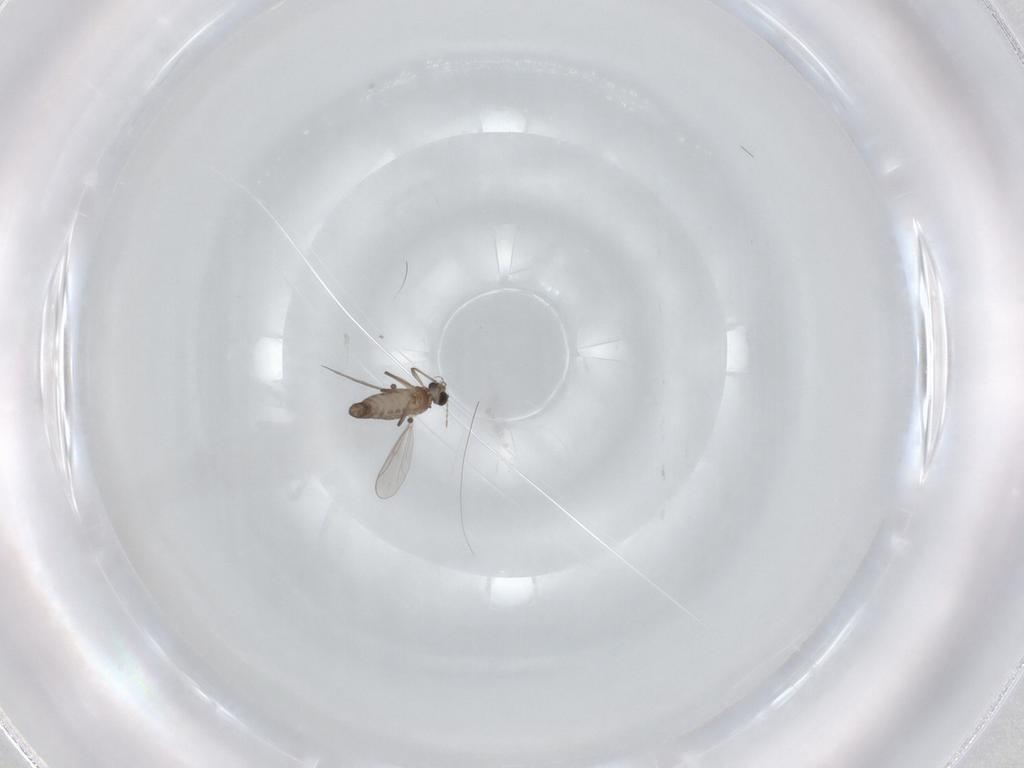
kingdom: Animalia
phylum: Arthropoda
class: Insecta
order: Diptera
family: Chironomidae
